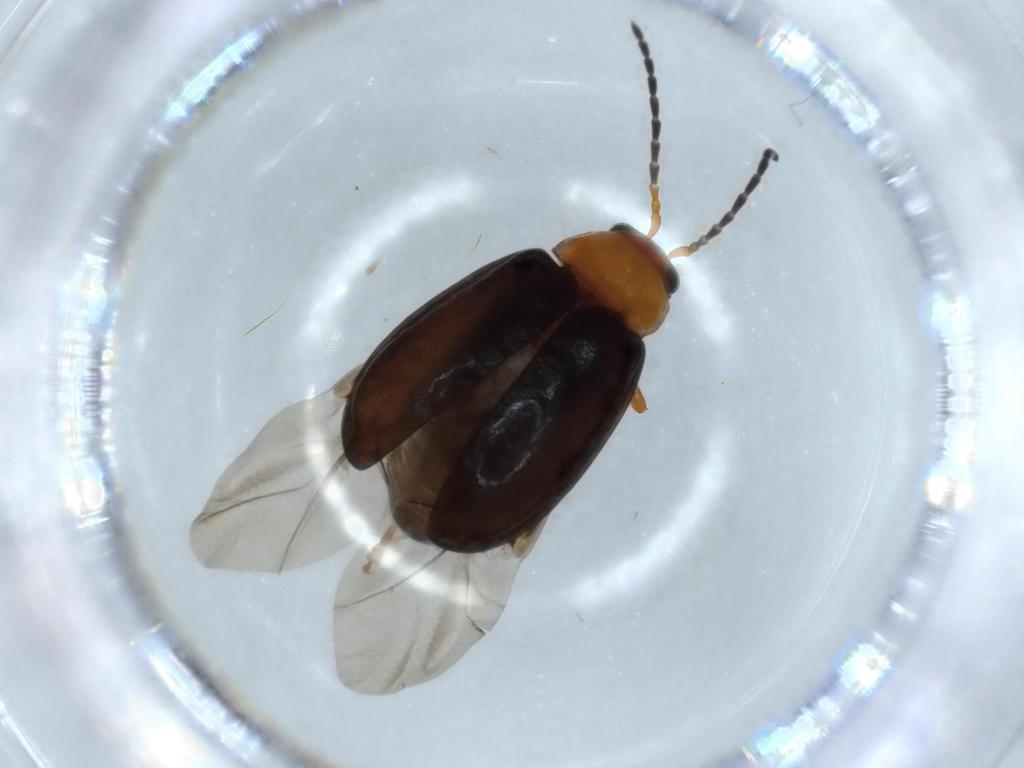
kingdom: Animalia
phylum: Arthropoda
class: Insecta
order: Coleoptera
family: Chrysomelidae
